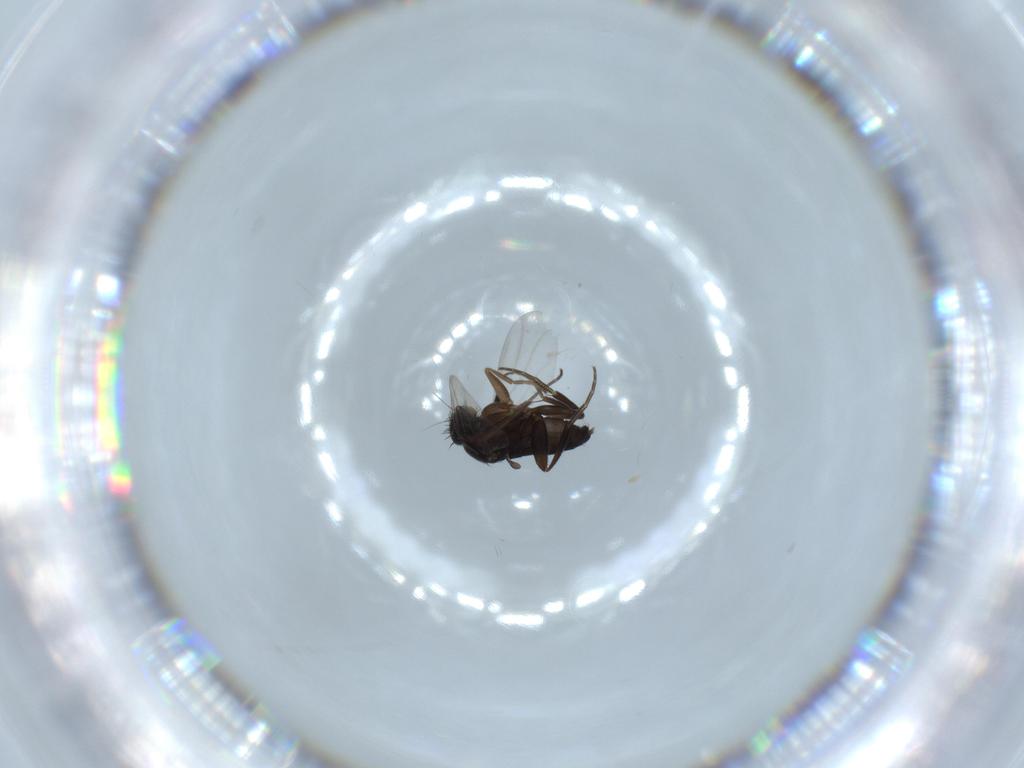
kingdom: Animalia
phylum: Arthropoda
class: Insecta
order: Diptera
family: Phoridae
